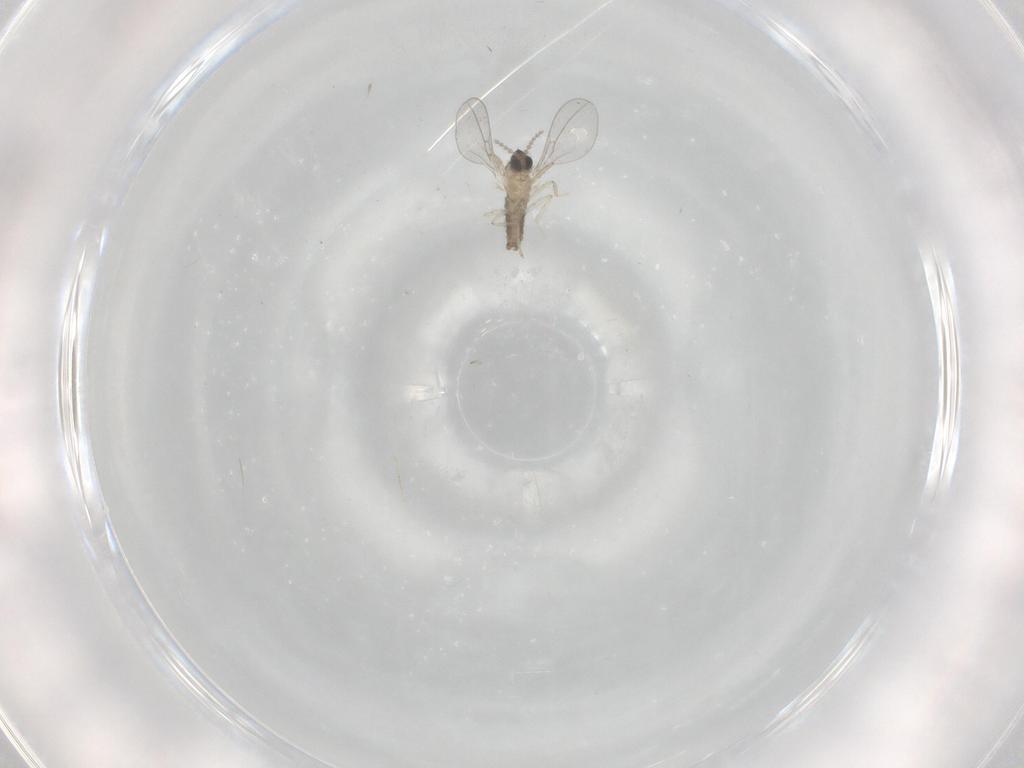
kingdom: Animalia
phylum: Arthropoda
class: Insecta
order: Diptera
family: Cecidomyiidae
